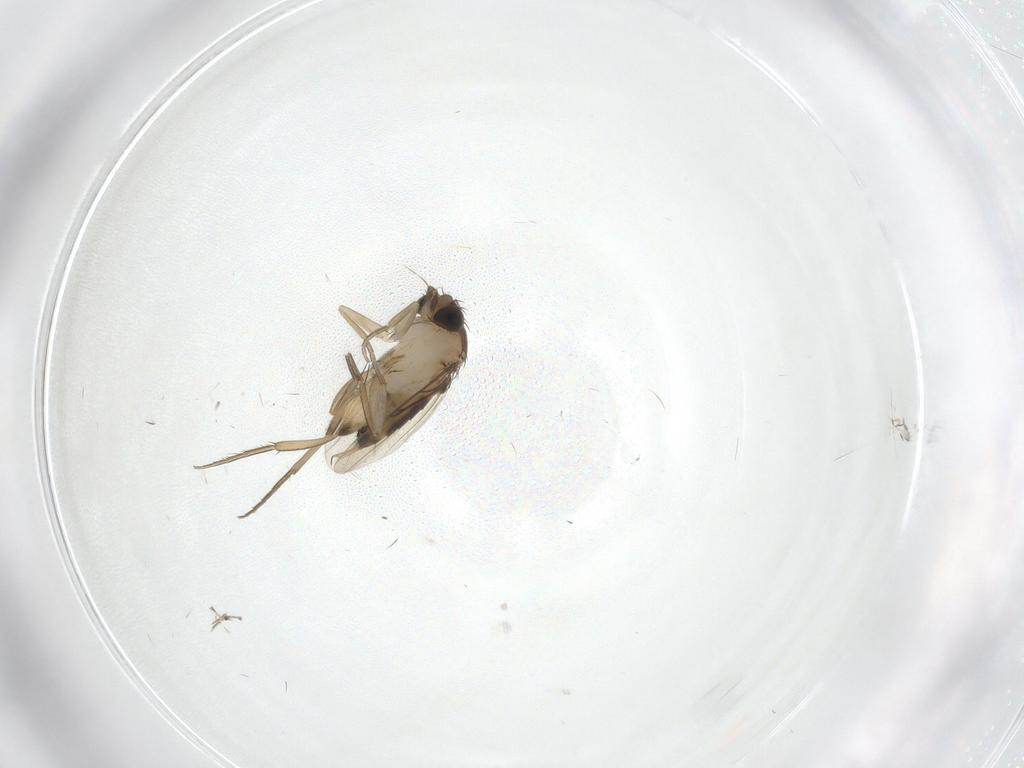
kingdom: Animalia
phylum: Arthropoda
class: Insecta
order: Diptera
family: Phoridae
